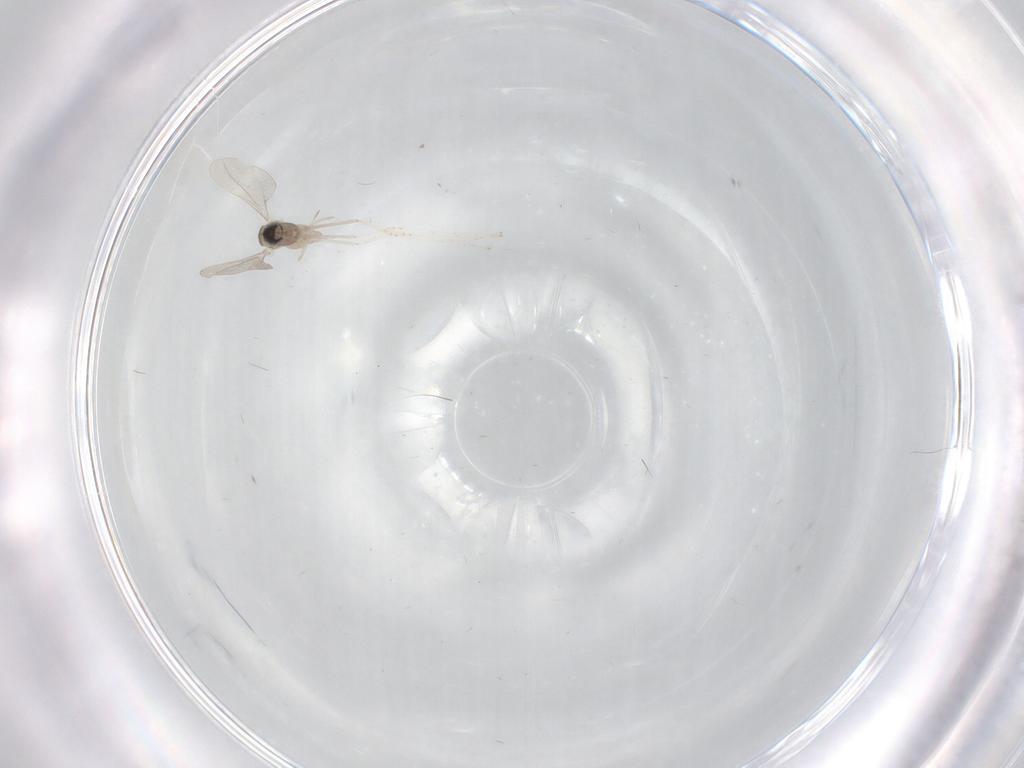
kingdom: Animalia
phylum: Arthropoda
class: Insecta
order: Diptera
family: Cecidomyiidae
